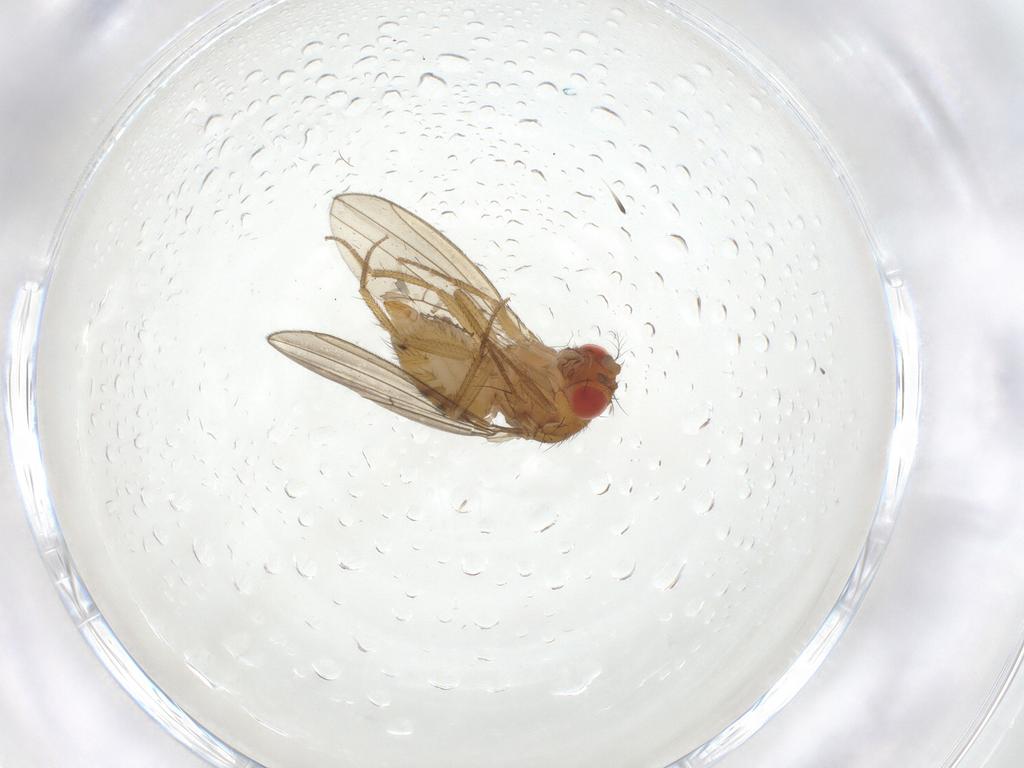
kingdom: Animalia
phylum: Arthropoda
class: Insecta
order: Diptera
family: Drosophilidae
